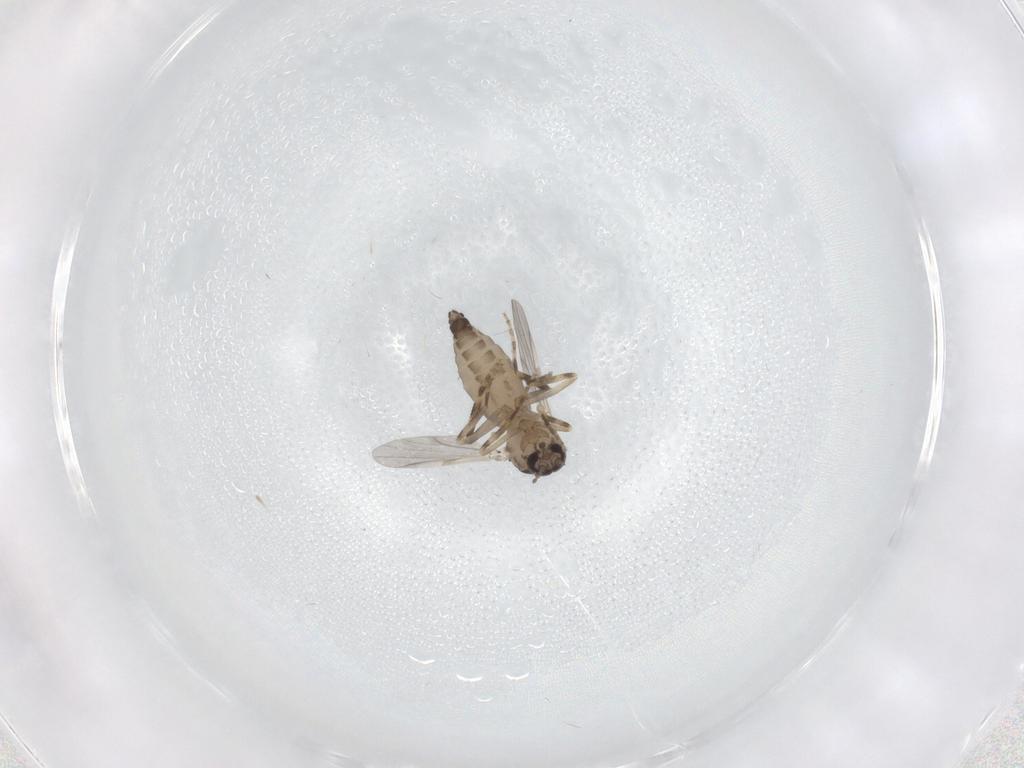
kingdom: Animalia
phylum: Arthropoda
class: Insecta
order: Diptera
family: Ceratopogonidae
